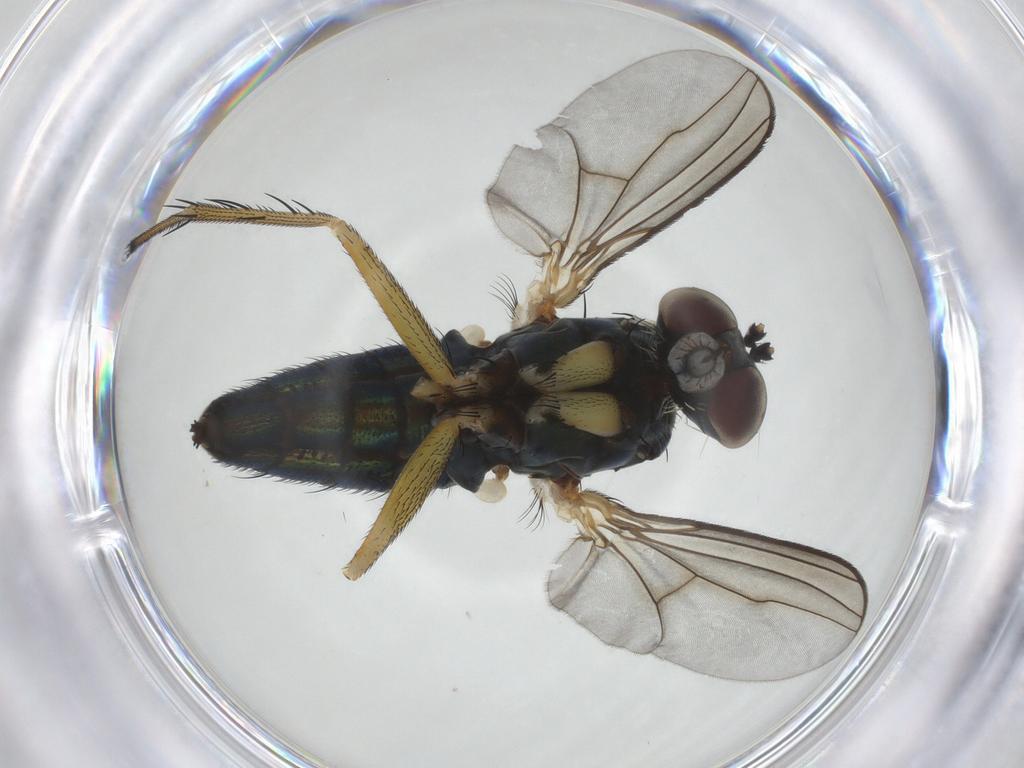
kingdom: Animalia
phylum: Arthropoda
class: Insecta
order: Diptera
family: Dolichopodidae
